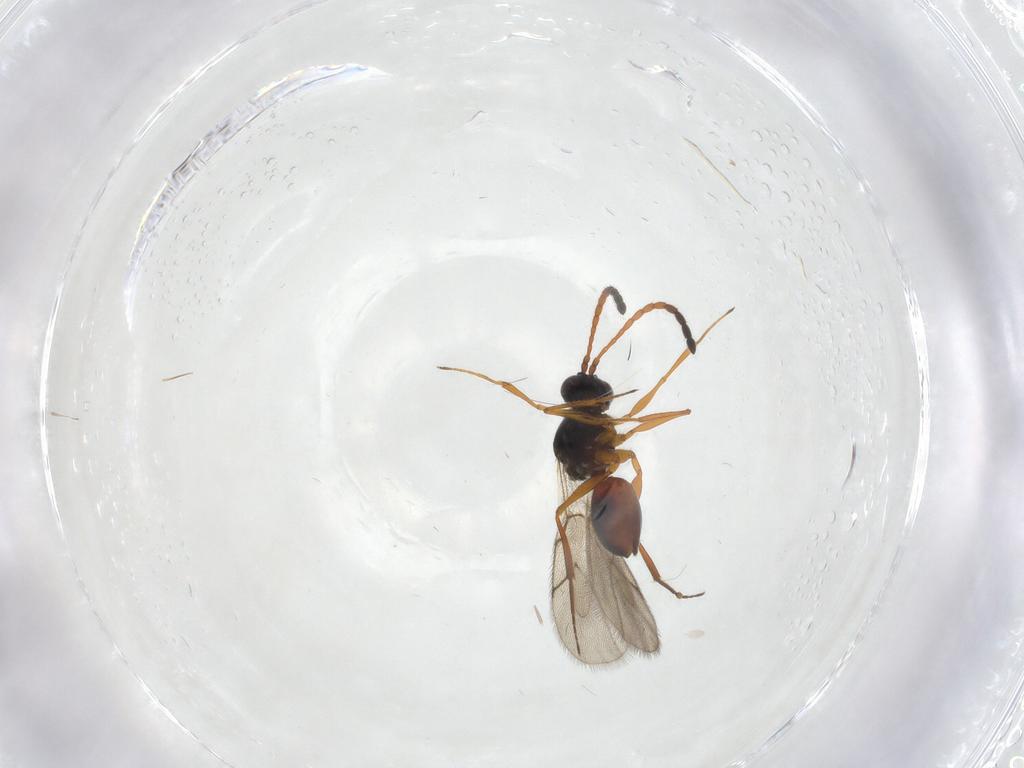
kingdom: Animalia
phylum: Arthropoda
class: Insecta
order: Hymenoptera
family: Figitidae
